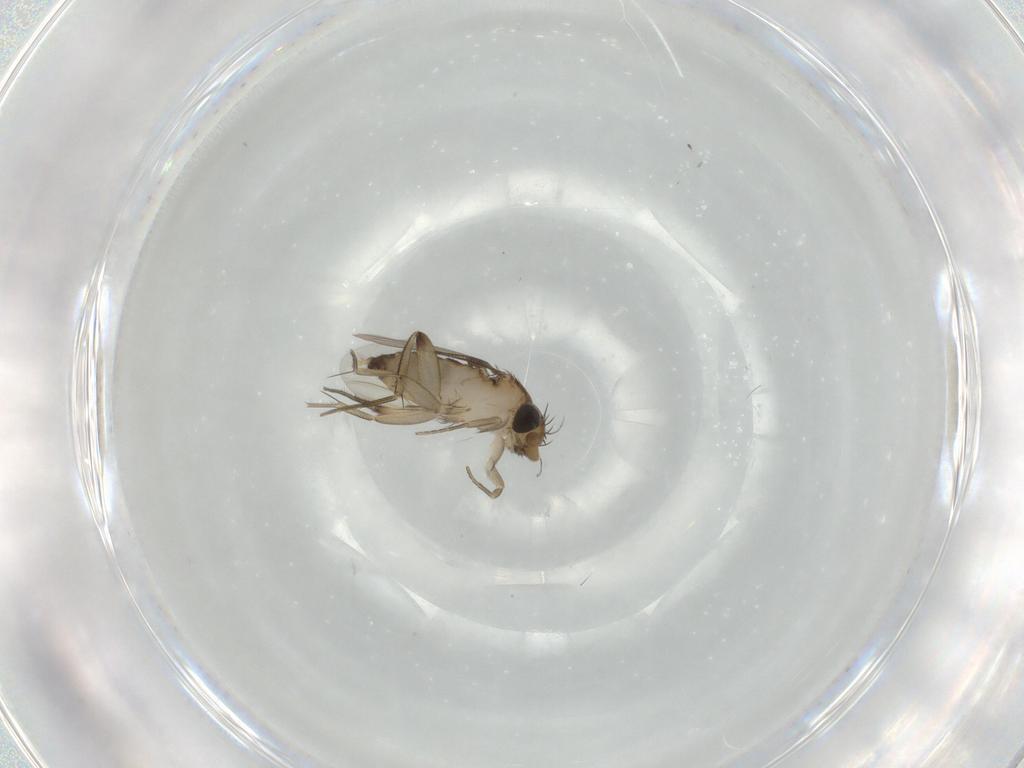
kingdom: Animalia
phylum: Arthropoda
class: Insecta
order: Diptera
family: Phoridae
